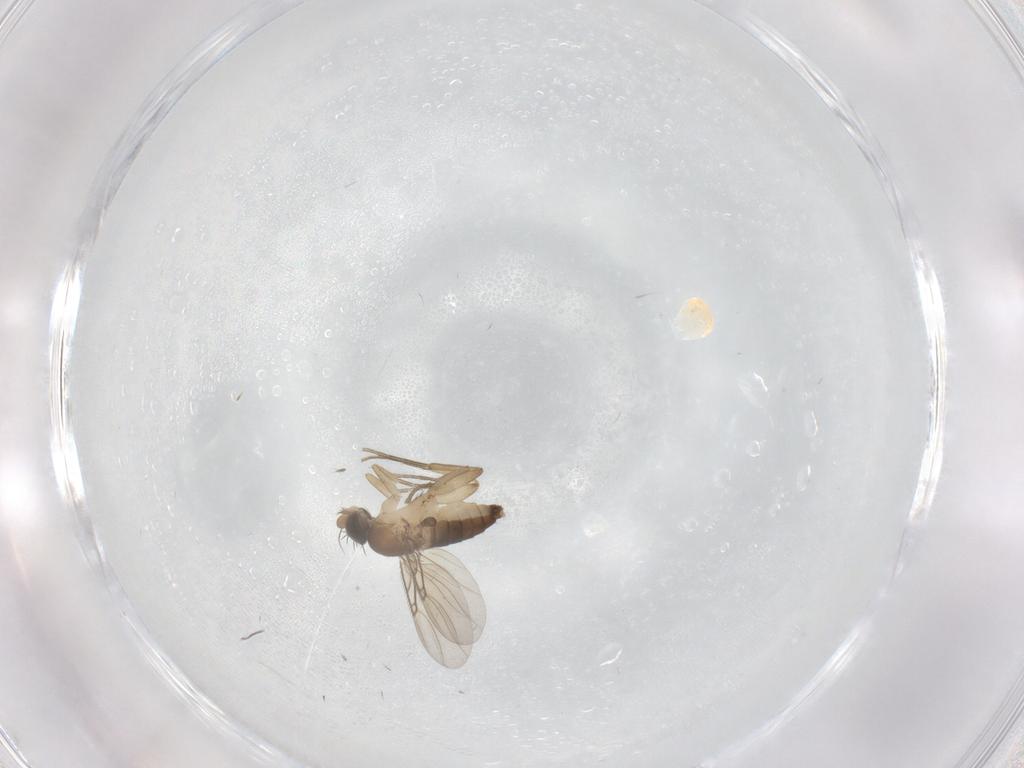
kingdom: Animalia
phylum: Arthropoda
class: Insecta
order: Diptera
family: Phoridae
